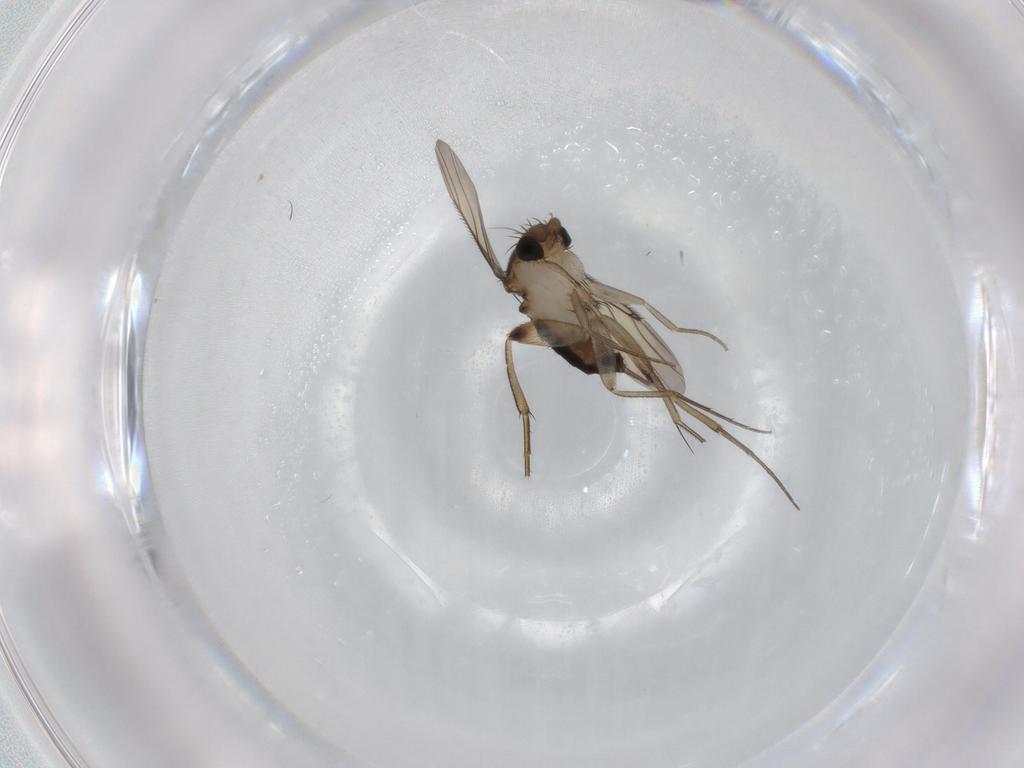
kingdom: Animalia
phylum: Arthropoda
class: Insecta
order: Diptera
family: Phoridae
